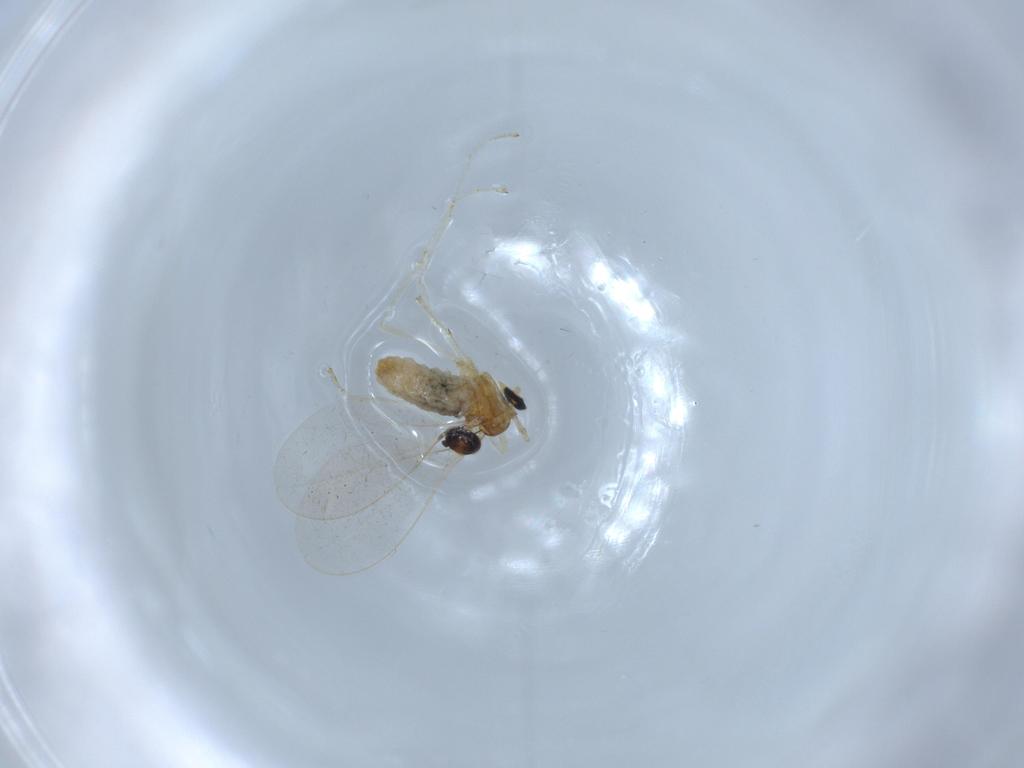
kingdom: Animalia
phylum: Arthropoda
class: Insecta
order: Diptera
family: Cecidomyiidae
